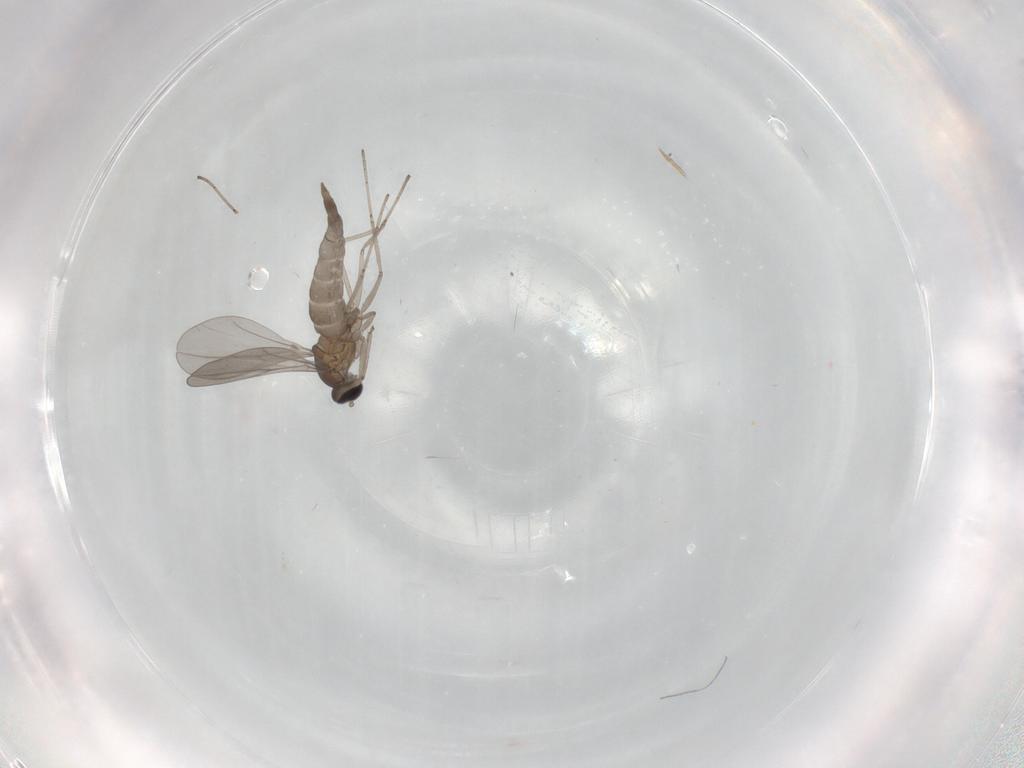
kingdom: Animalia
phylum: Arthropoda
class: Insecta
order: Diptera
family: Cecidomyiidae
